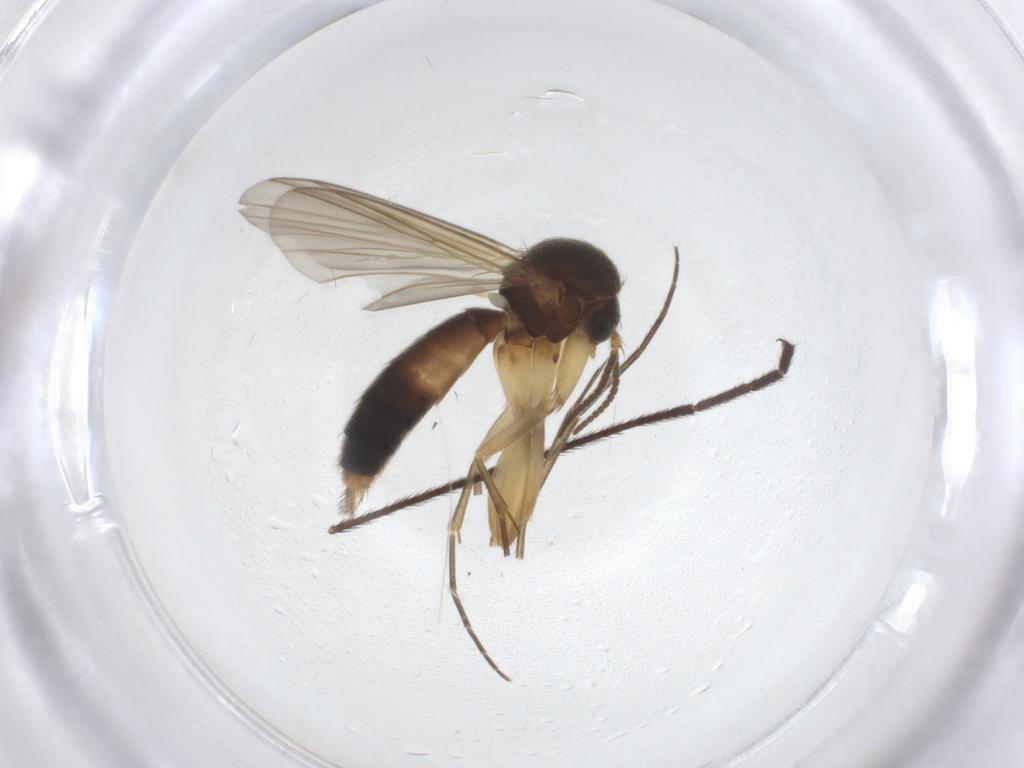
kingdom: Animalia
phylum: Arthropoda
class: Insecta
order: Diptera
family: Mycetophilidae
